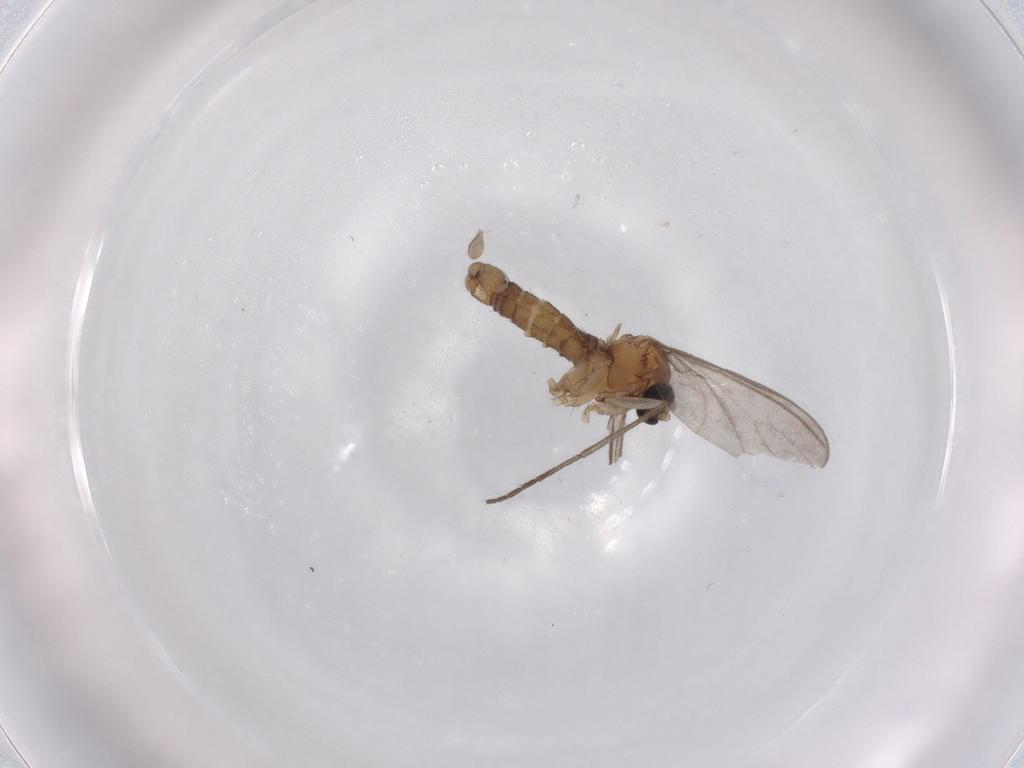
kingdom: Animalia
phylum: Arthropoda
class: Insecta
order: Diptera
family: Sciaridae
